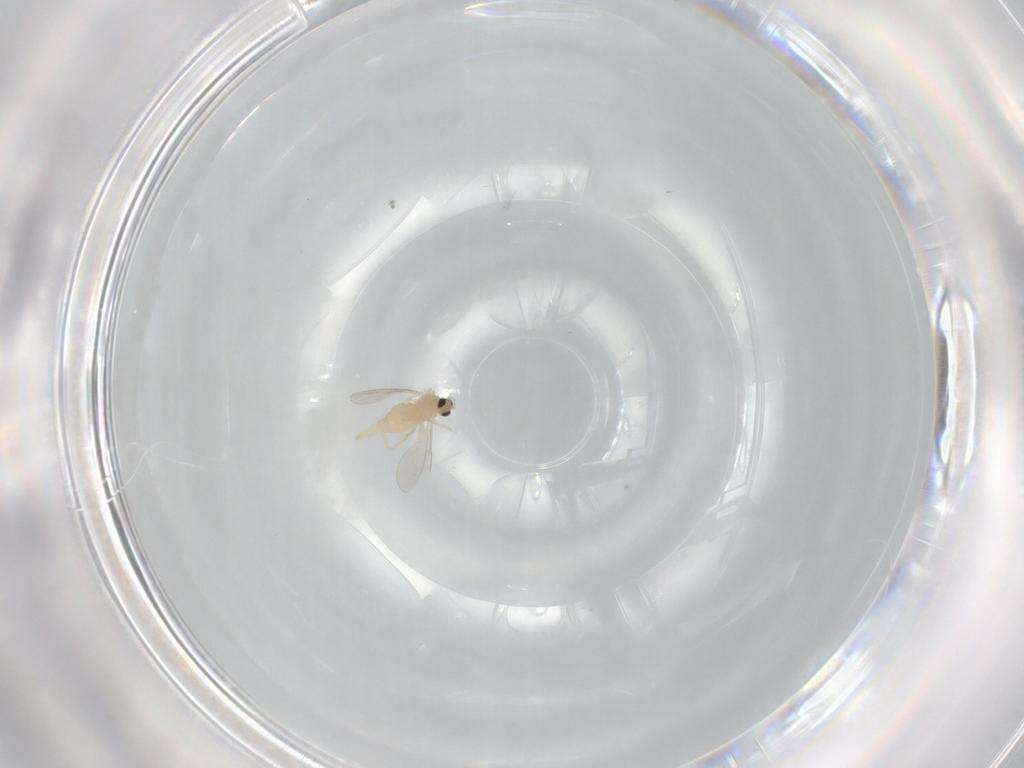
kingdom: Animalia
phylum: Arthropoda
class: Insecta
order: Diptera
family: Cecidomyiidae
